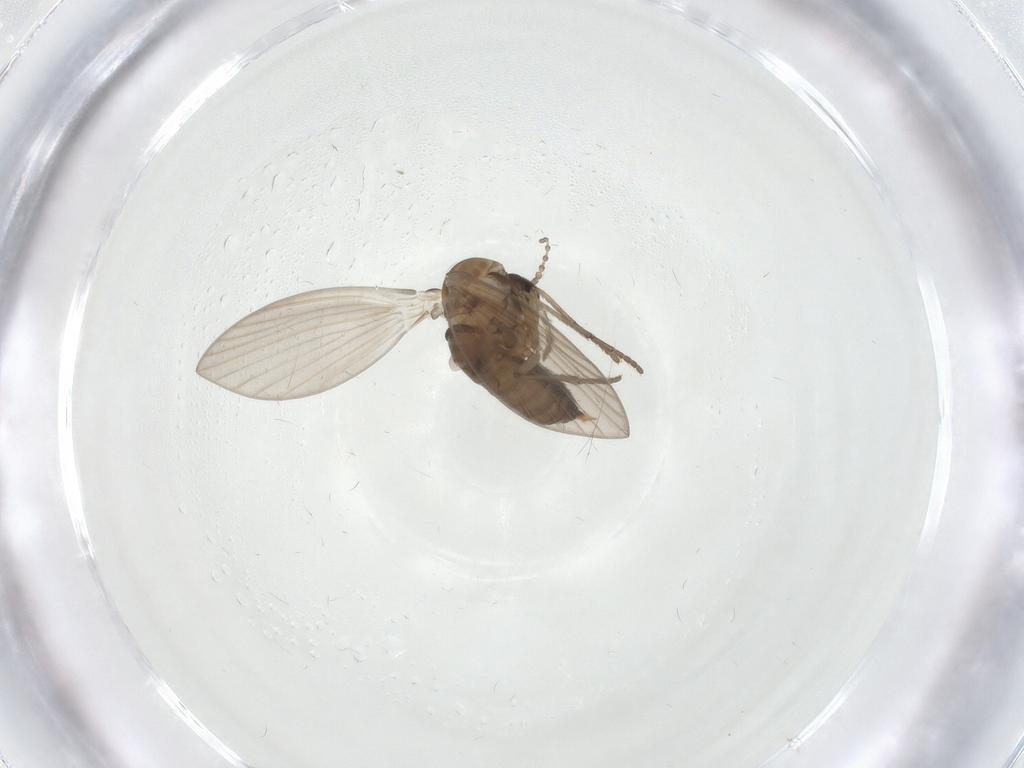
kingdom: Animalia
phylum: Arthropoda
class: Insecta
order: Diptera
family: Psychodidae
